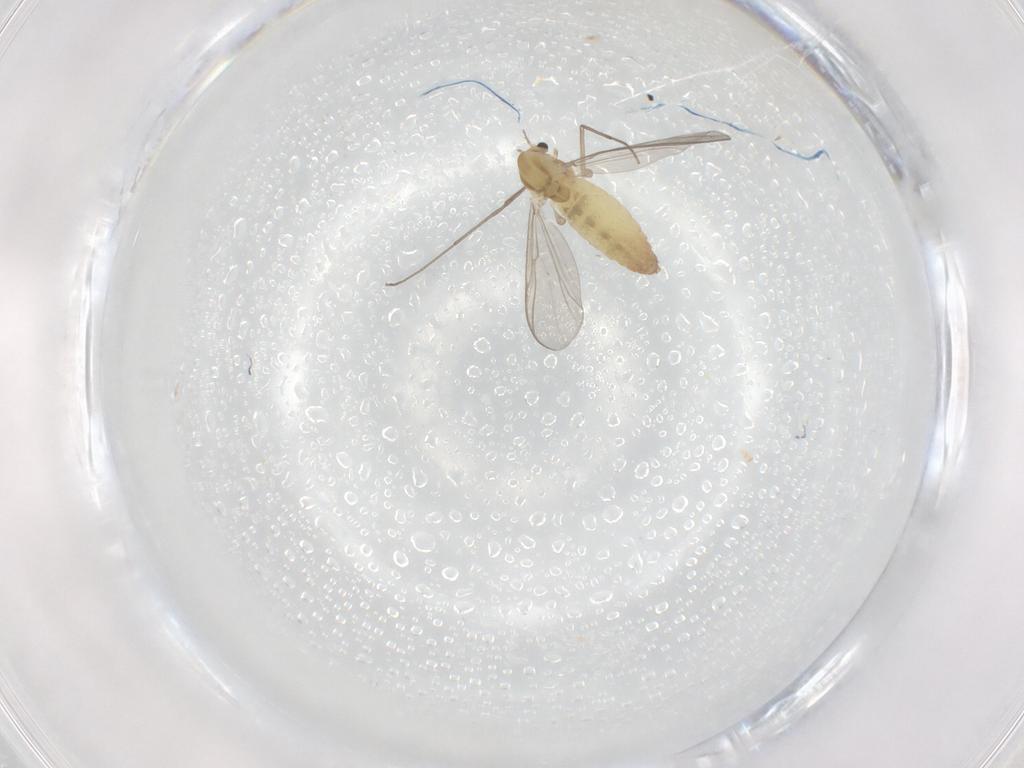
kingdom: Animalia
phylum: Arthropoda
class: Insecta
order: Diptera
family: Chironomidae
